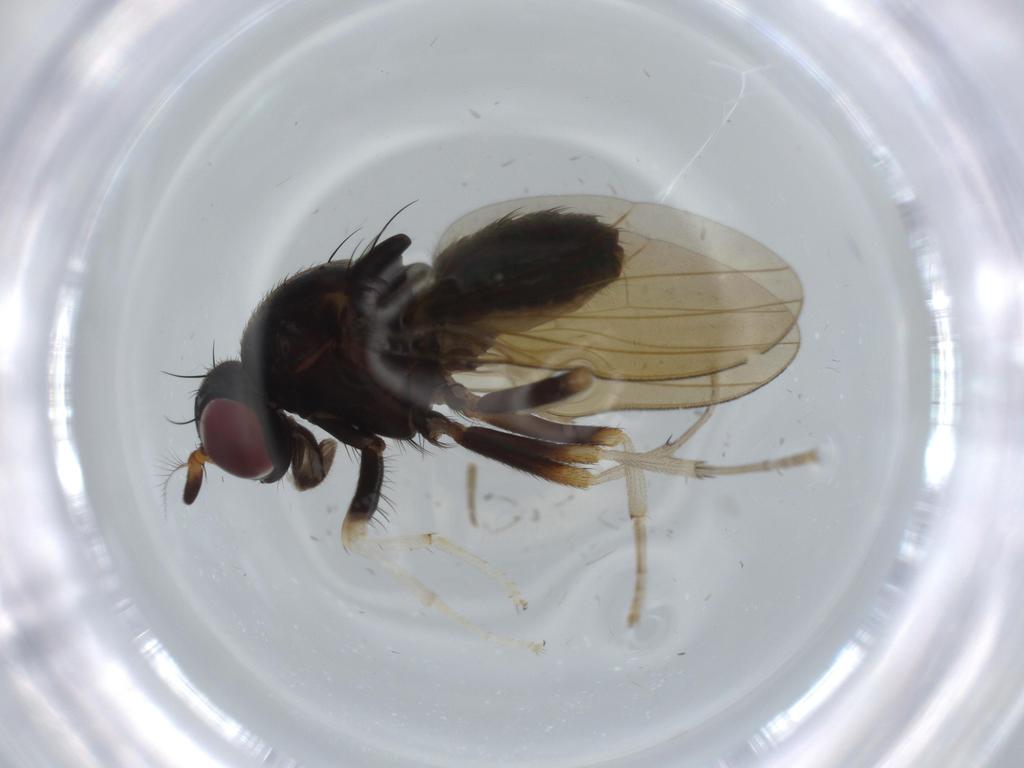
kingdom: Animalia
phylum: Arthropoda
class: Insecta
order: Diptera
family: Dolichopodidae
